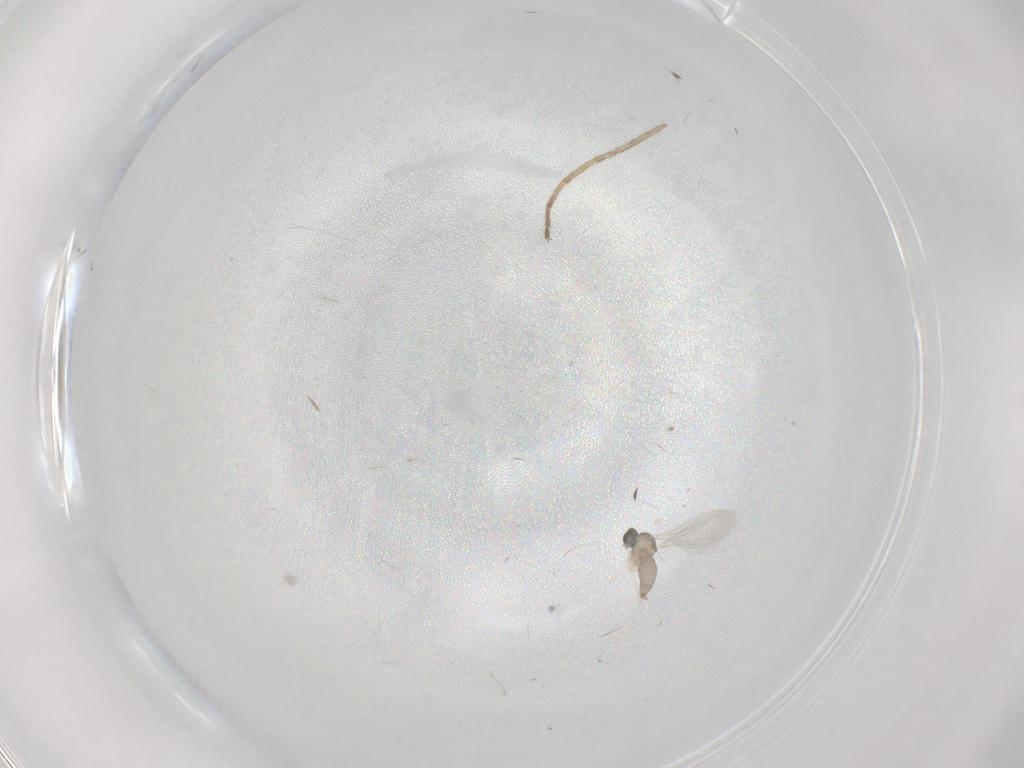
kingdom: Animalia
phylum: Arthropoda
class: Insecta
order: Diptera
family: Cecidomyiidae
